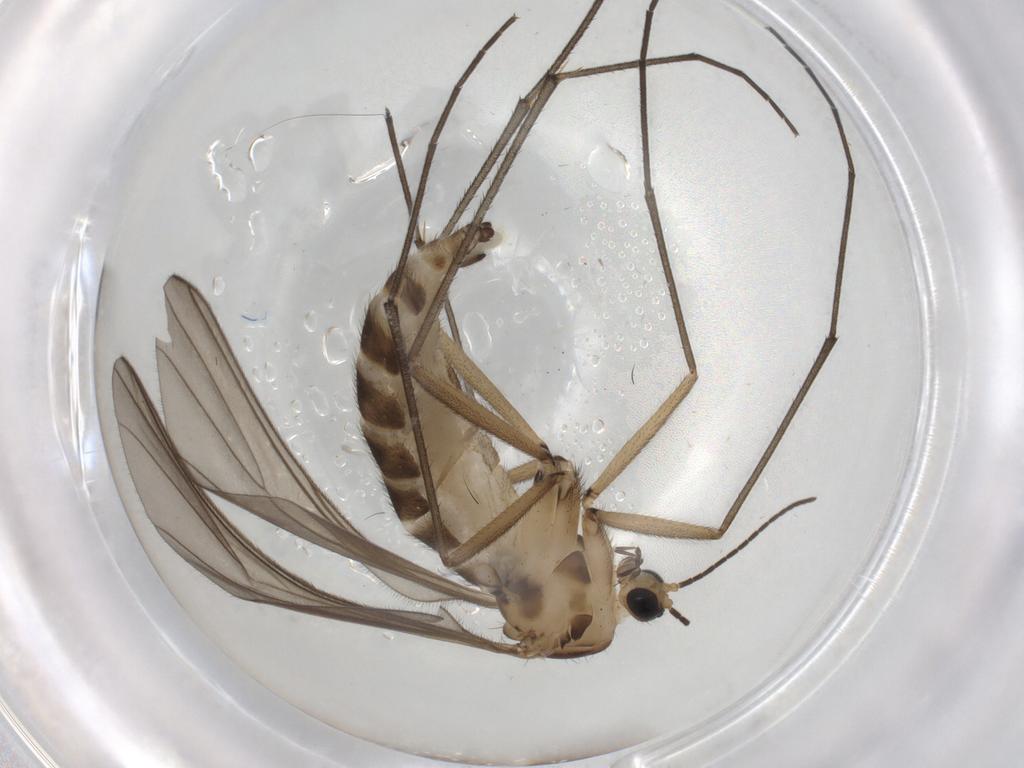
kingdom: Animalia
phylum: Arthropoda
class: Insecta
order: Diptera
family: Sciaridae
